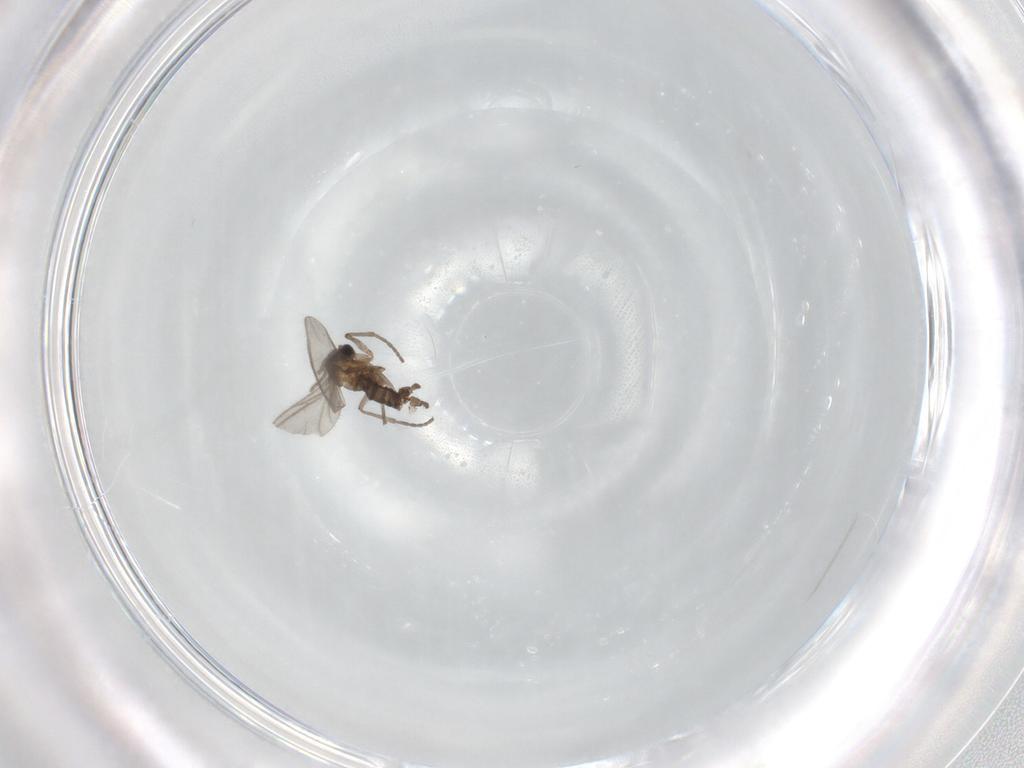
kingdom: Animalia
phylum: Arthropoda
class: Insecta
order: Diptera
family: Sciaridae
